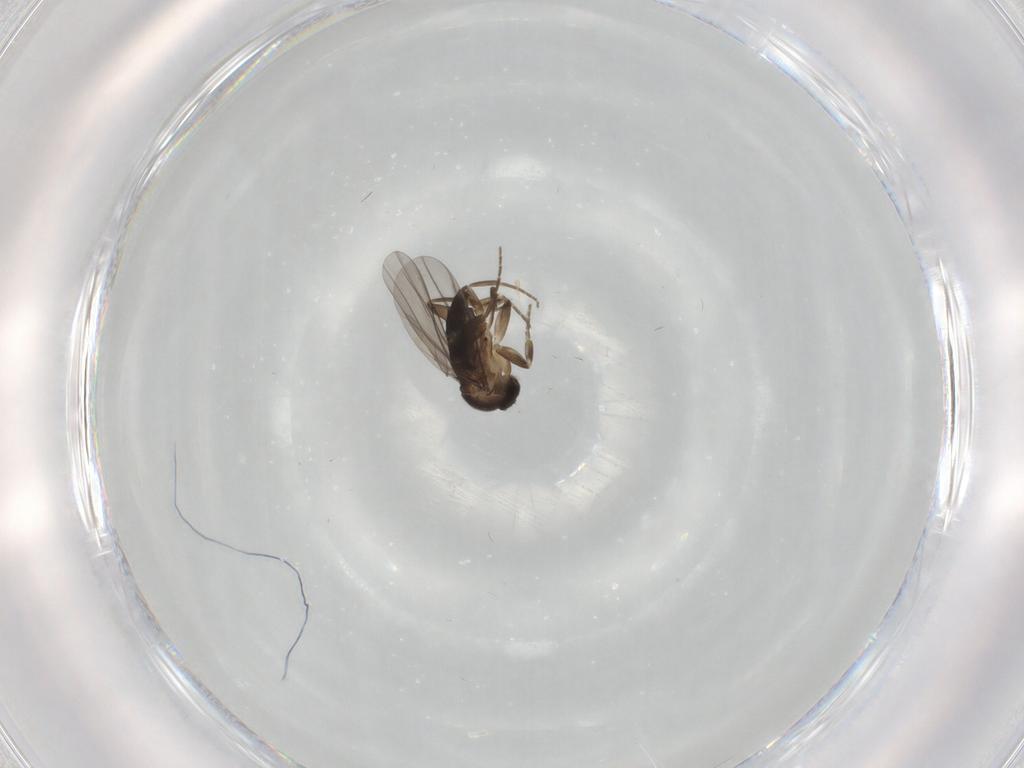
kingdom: Animalia
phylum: Arthropoda
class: Insecta
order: Diptera
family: Phoridae
